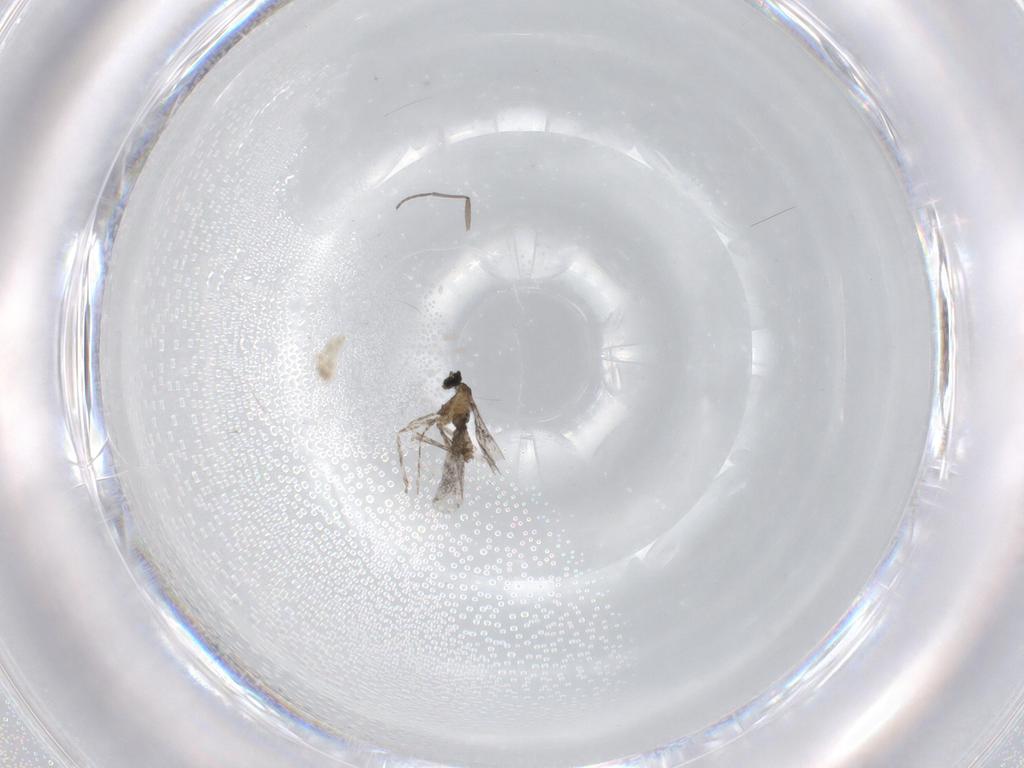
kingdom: Animalia
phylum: Arthropoda
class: Insecta
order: Diptera
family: Cecidomyiidae
